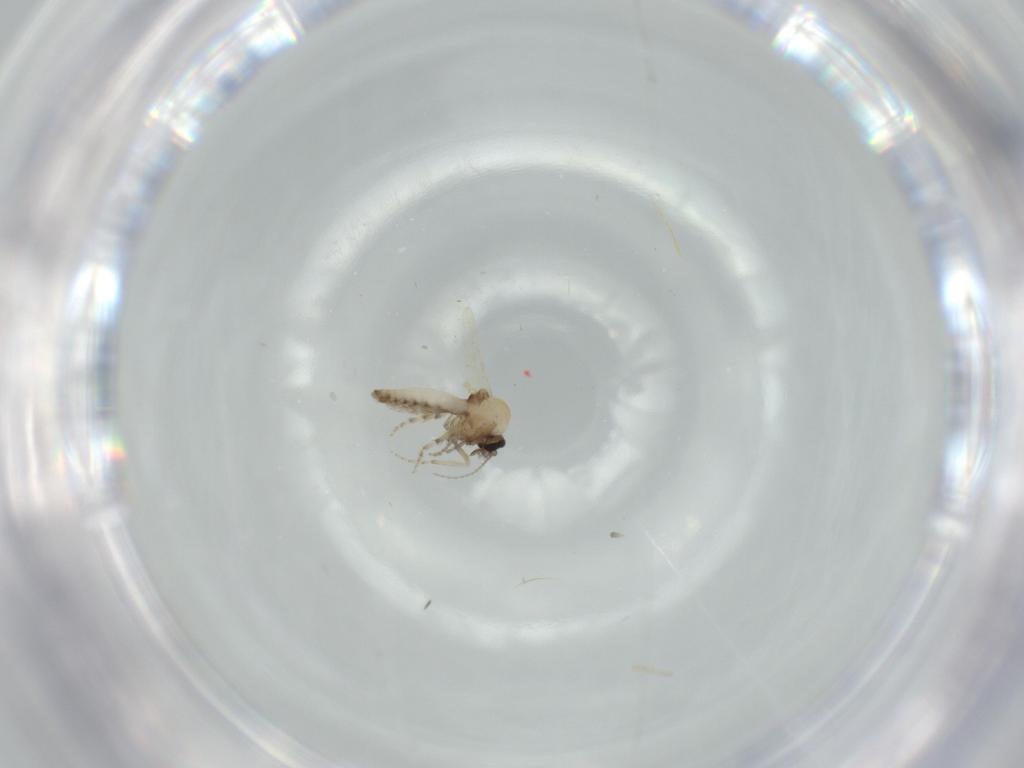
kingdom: Animalia
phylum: Arthropoda
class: Insecta
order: Diptera
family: Ceratopogonidae
